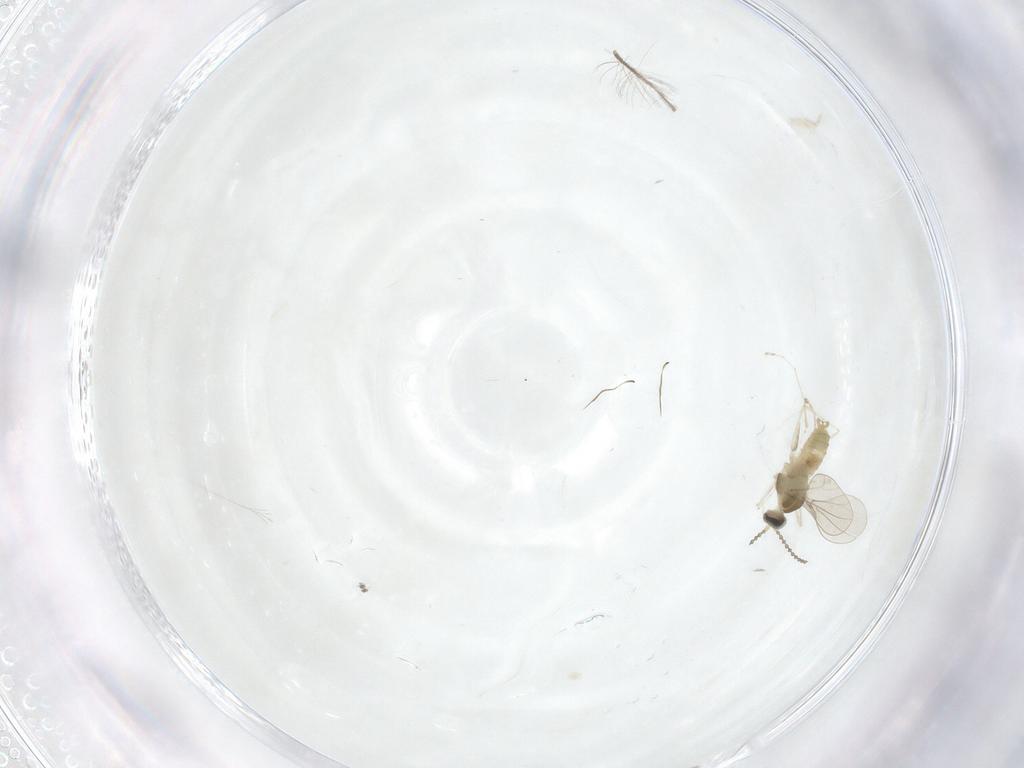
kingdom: Animalia
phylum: Arthropoda
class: Insecta
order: Diptera
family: Cecidomyiidae
